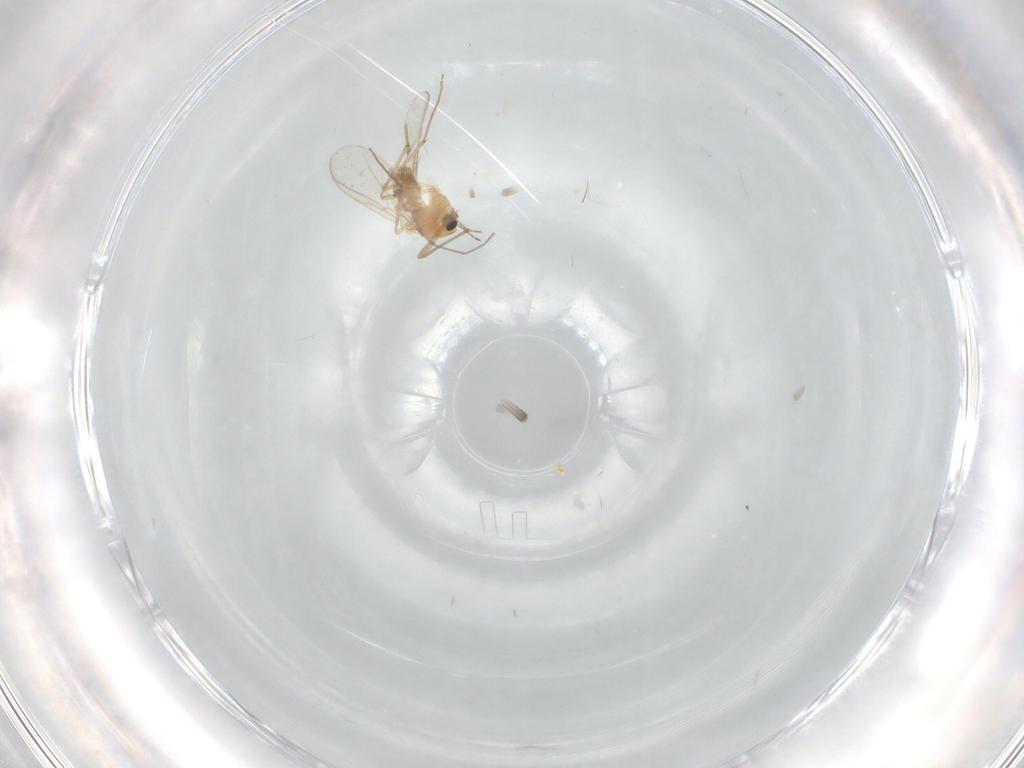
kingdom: Animalia
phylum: Arthropoda
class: Insecta
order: Diptera
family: Chironomidae
